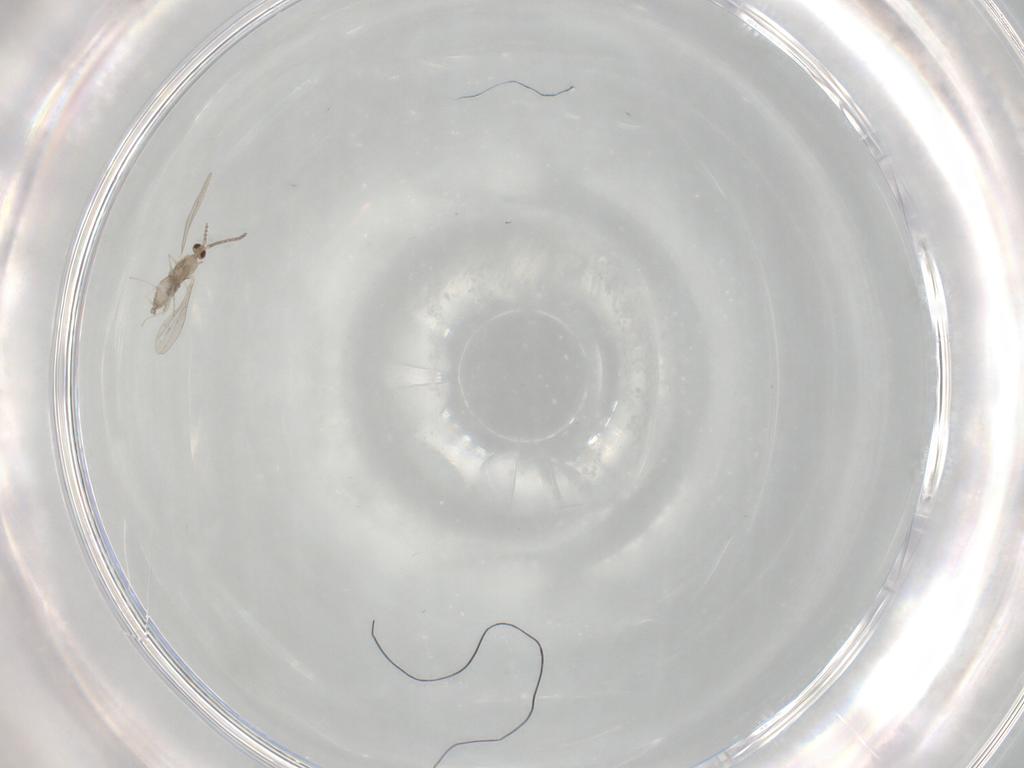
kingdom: Animalia
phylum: Arthropoda
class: Insecta
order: Diptera
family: Cecidomyiidae
